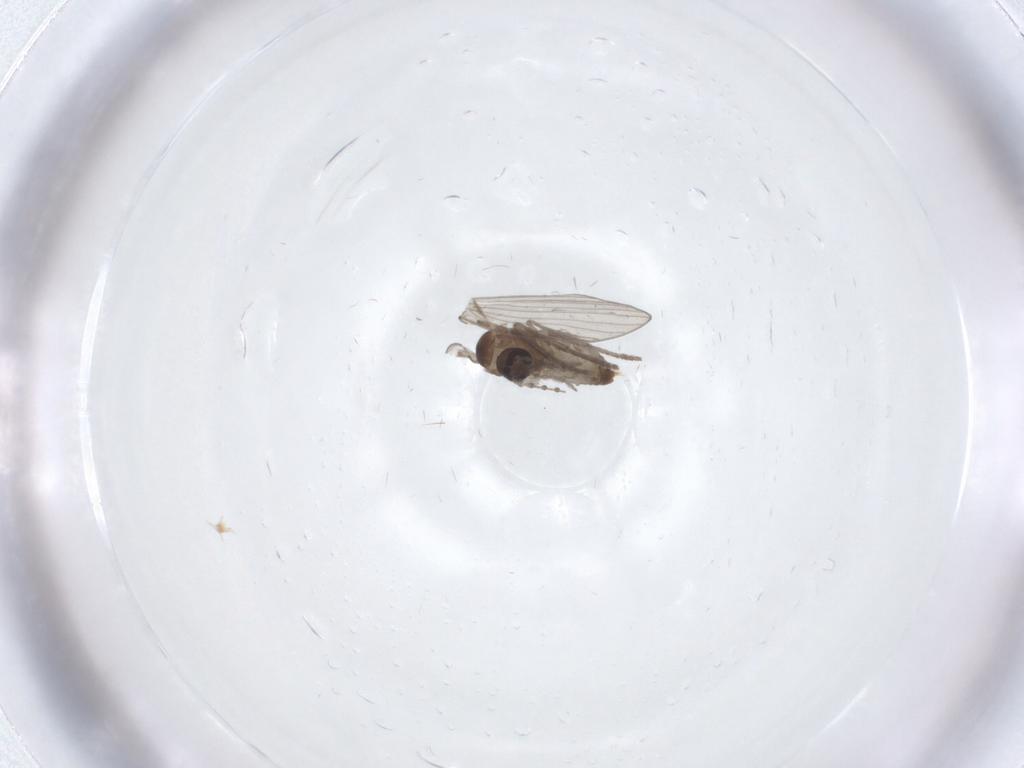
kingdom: Animalia
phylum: Arthropoda
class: Insecta
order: Diptera
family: Psychodidae
